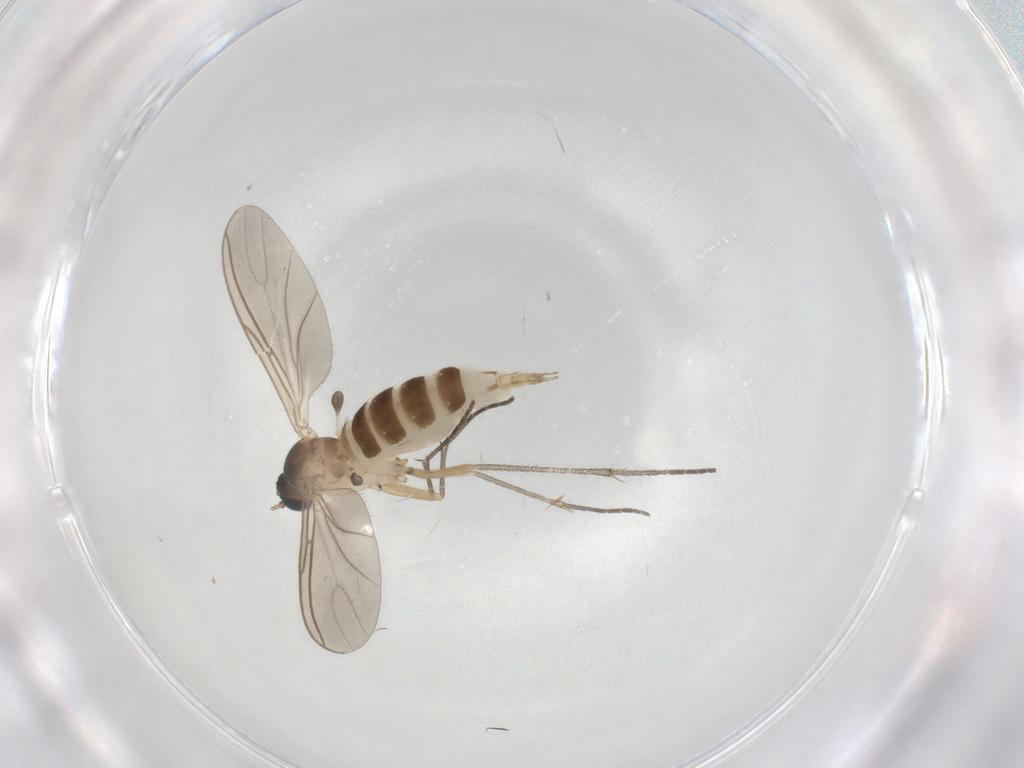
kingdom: Animalia
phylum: Arthropoda
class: Insecta
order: Diptera
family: Sciaridae
